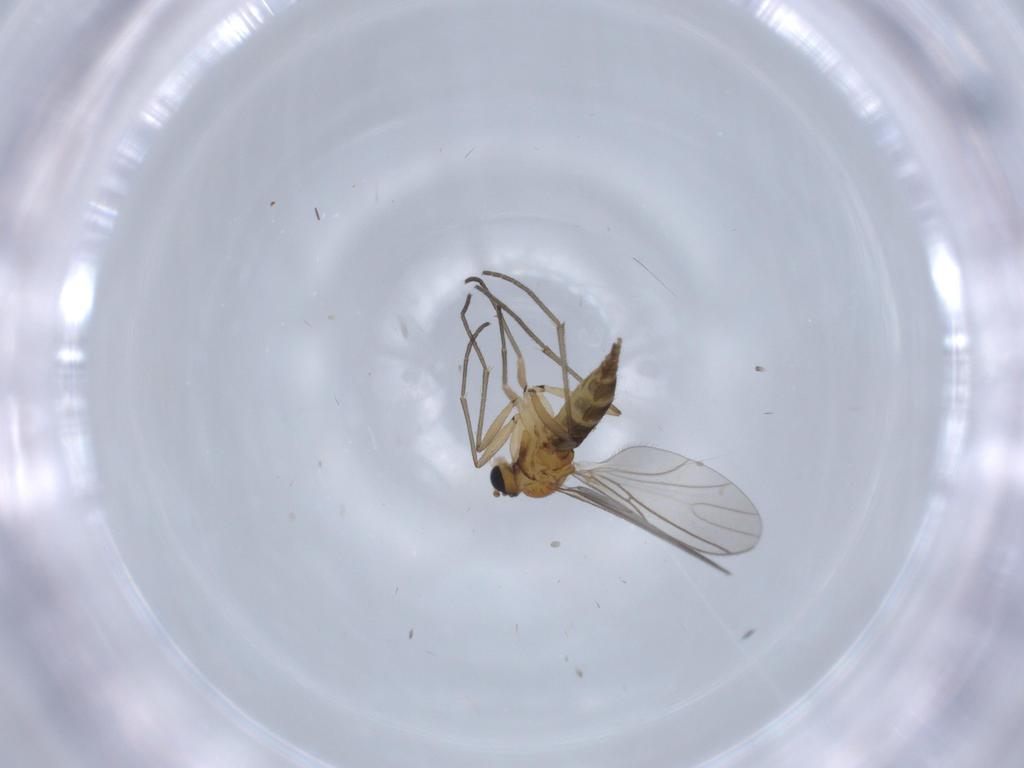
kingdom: Animalia
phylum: Arthropoda
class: Insecta
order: Diptera
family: Sciaridae
